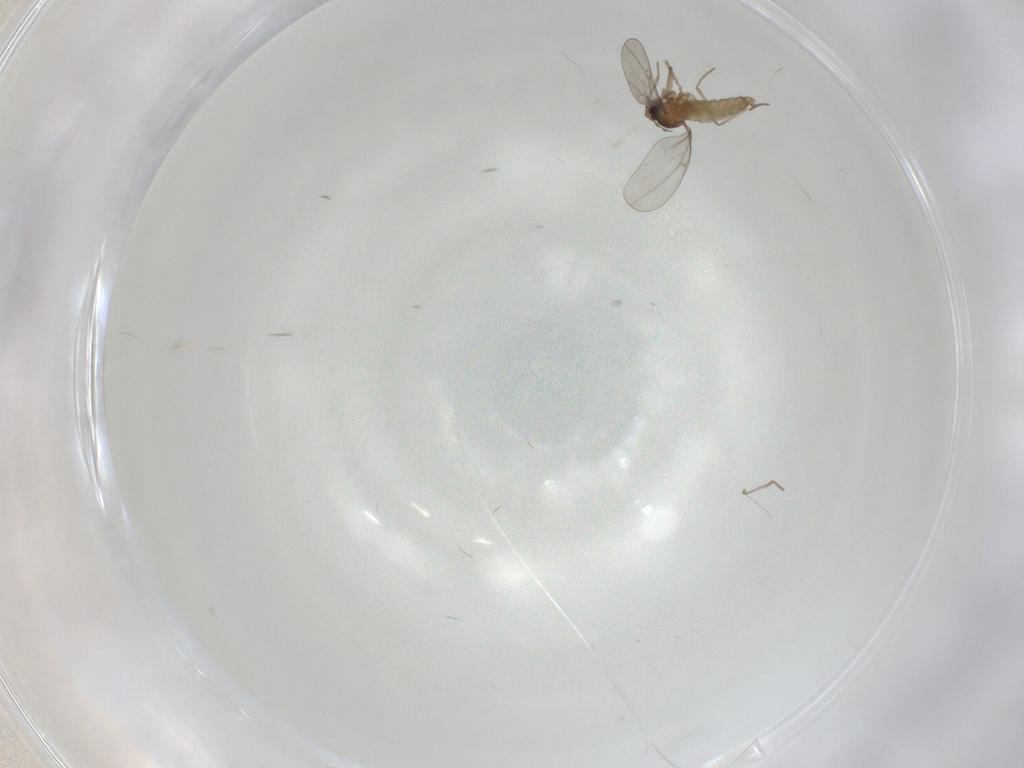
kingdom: Animalia
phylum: Arthropoda
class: Insecta
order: Diptera
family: Cecidomyiidae
